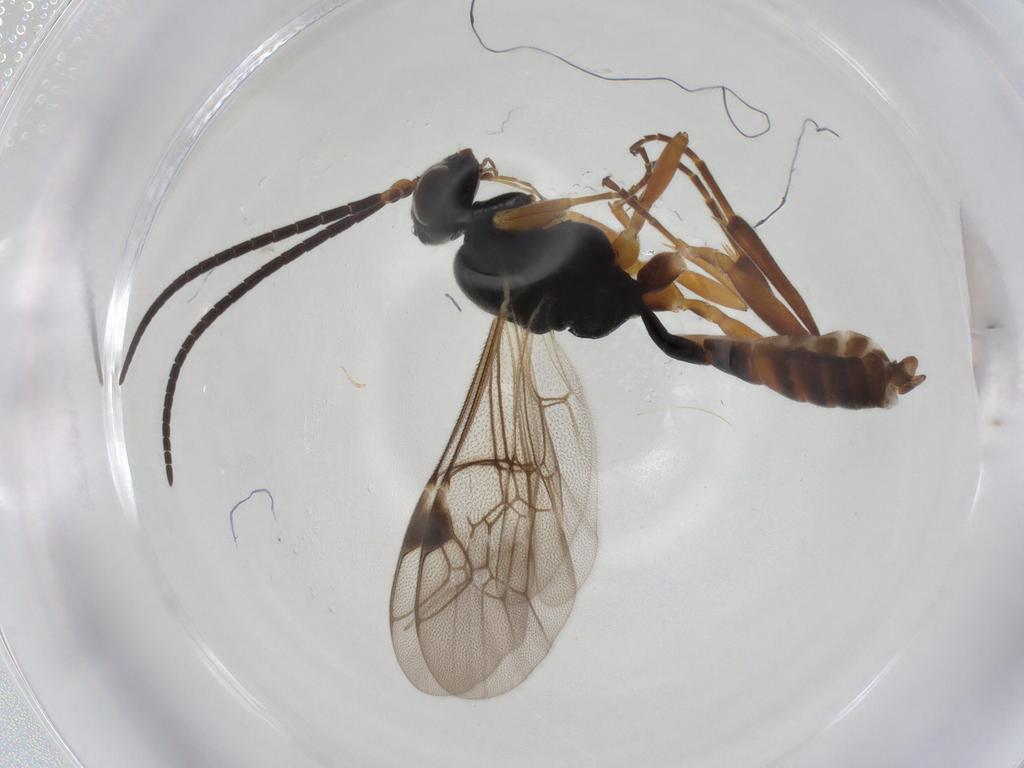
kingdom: Animalia
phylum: Arthropoda
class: Insecta
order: Hymenoptera
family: Ichneumonidae
